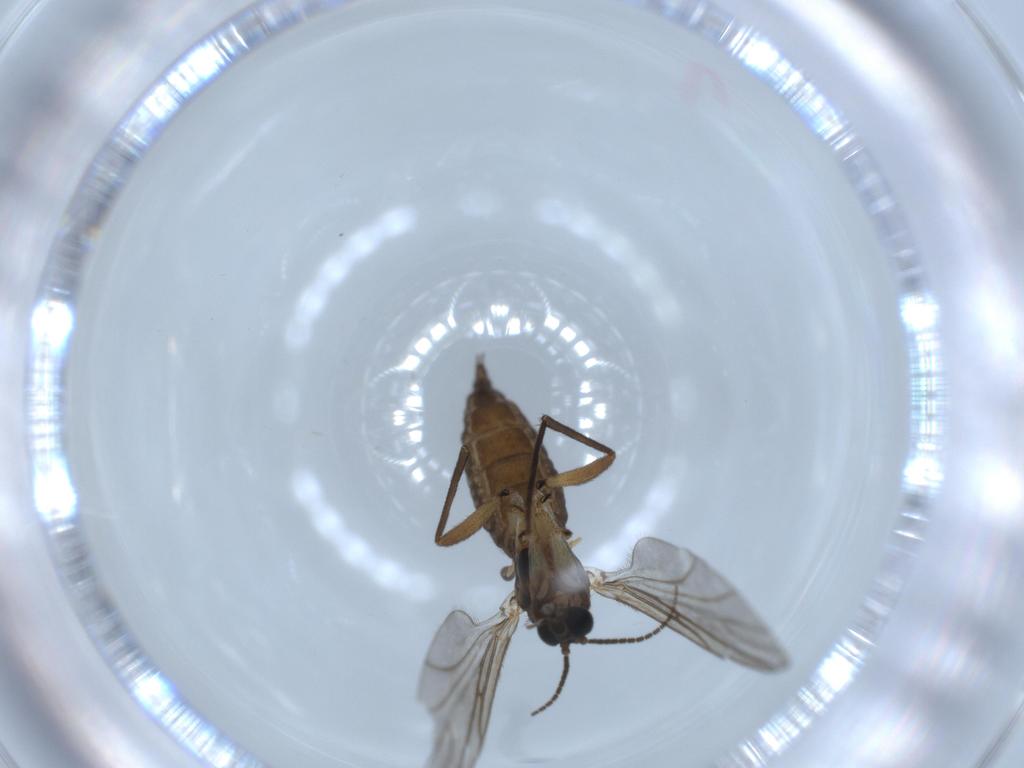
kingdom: Animalia
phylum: Arthropoda
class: Insecta
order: Diptera
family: Sciaridae
